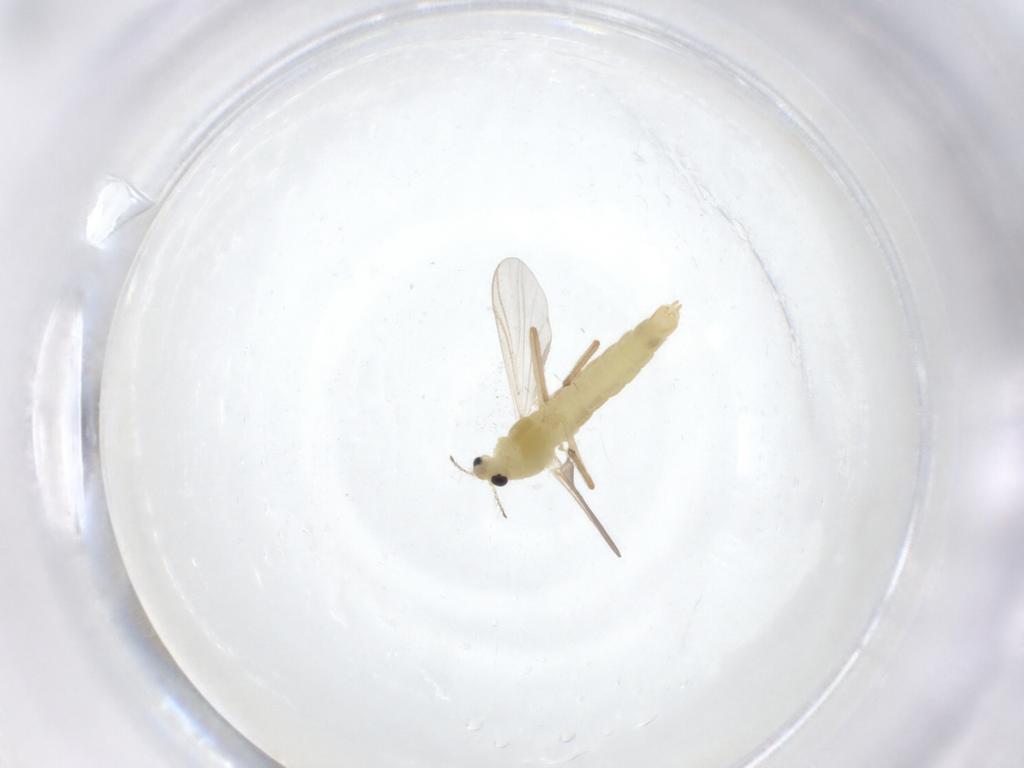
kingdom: Animalia
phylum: Arthropoda
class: Insecta
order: Diptera
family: Chironomidae
